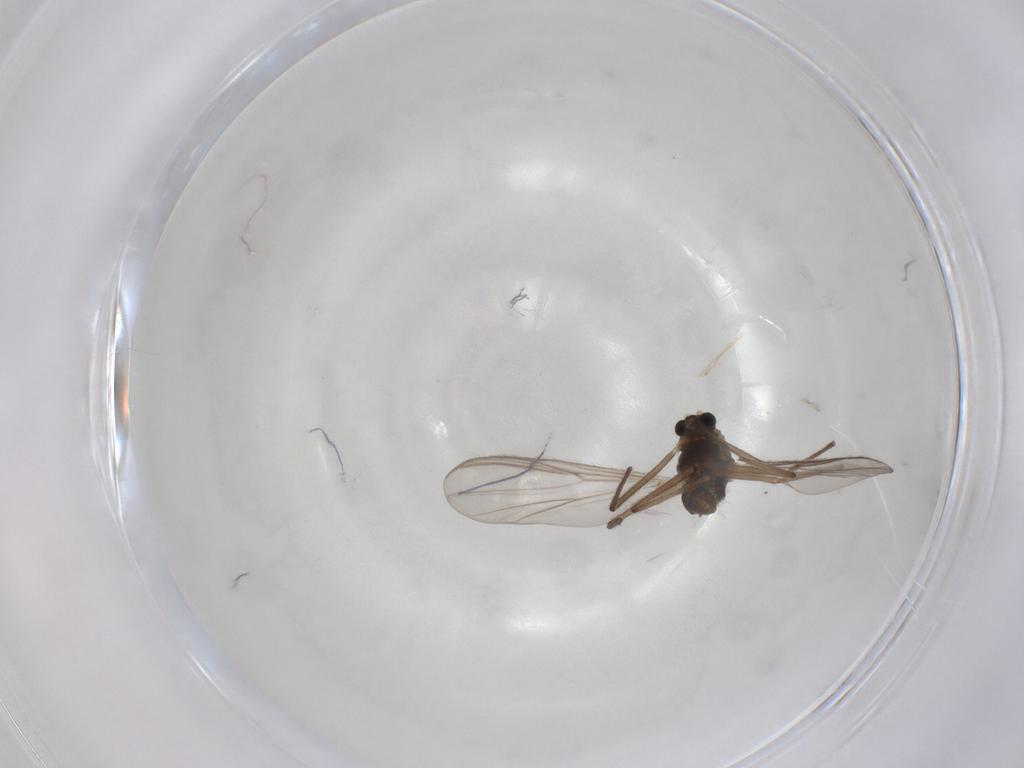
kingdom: Animalia
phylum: Arthropoda
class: Insecta
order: Diptera
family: Chironomidae
